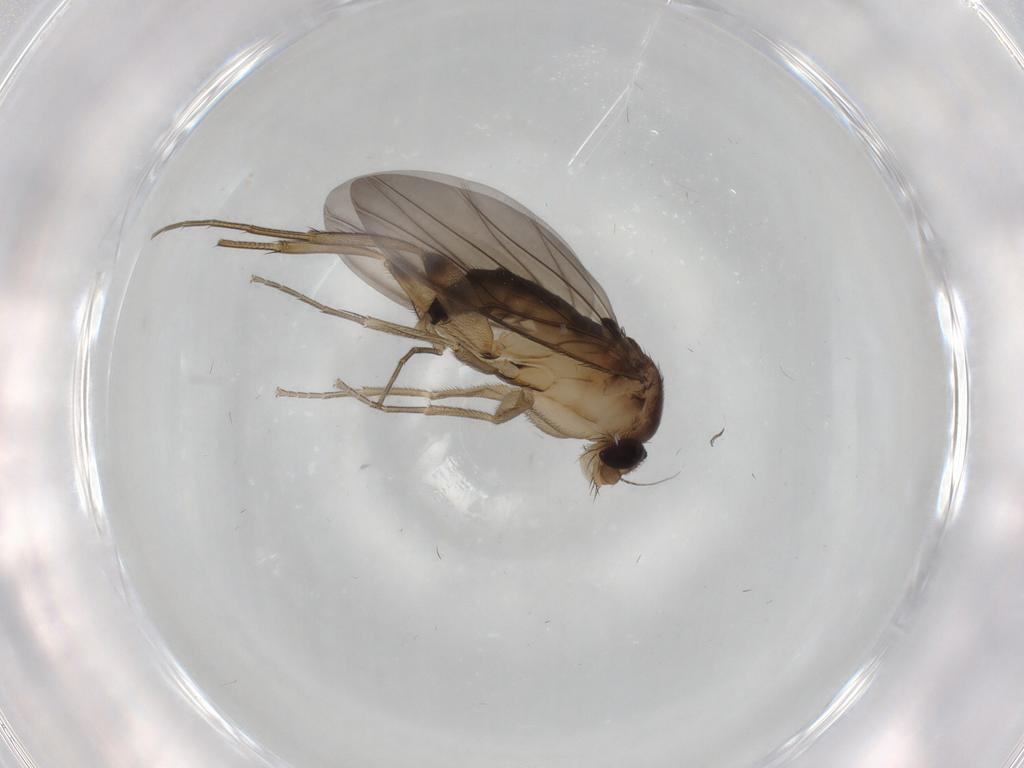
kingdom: Animalia
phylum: Arthropoda
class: Insecta
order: Diptera
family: Phoridae
